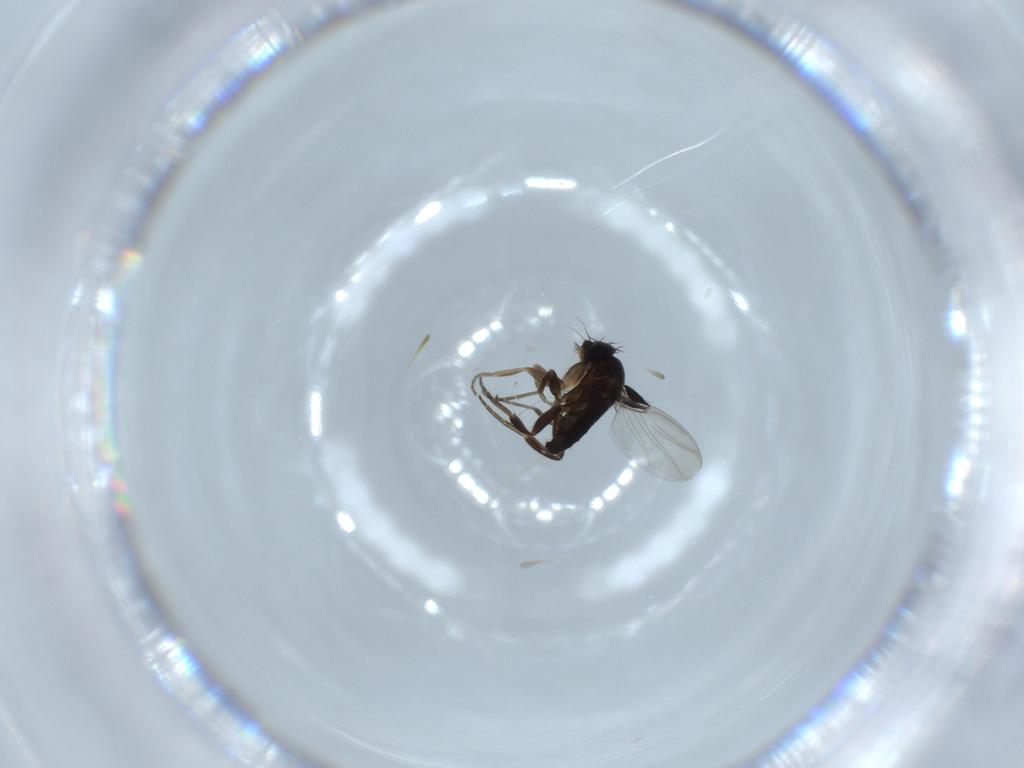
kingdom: Animalia
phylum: Arthropoda
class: Insecta
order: Diptera
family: Phoridae
